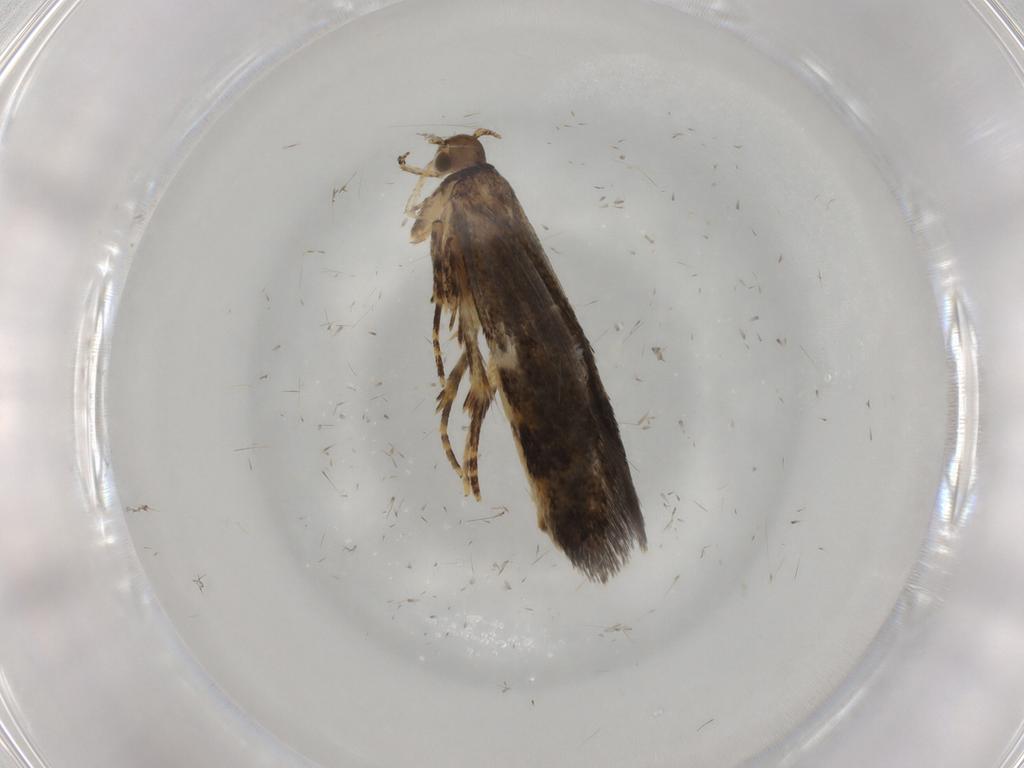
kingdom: Animalia
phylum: Arthropoda
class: Insecta
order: Lepidoptera
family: Oecophoridae
